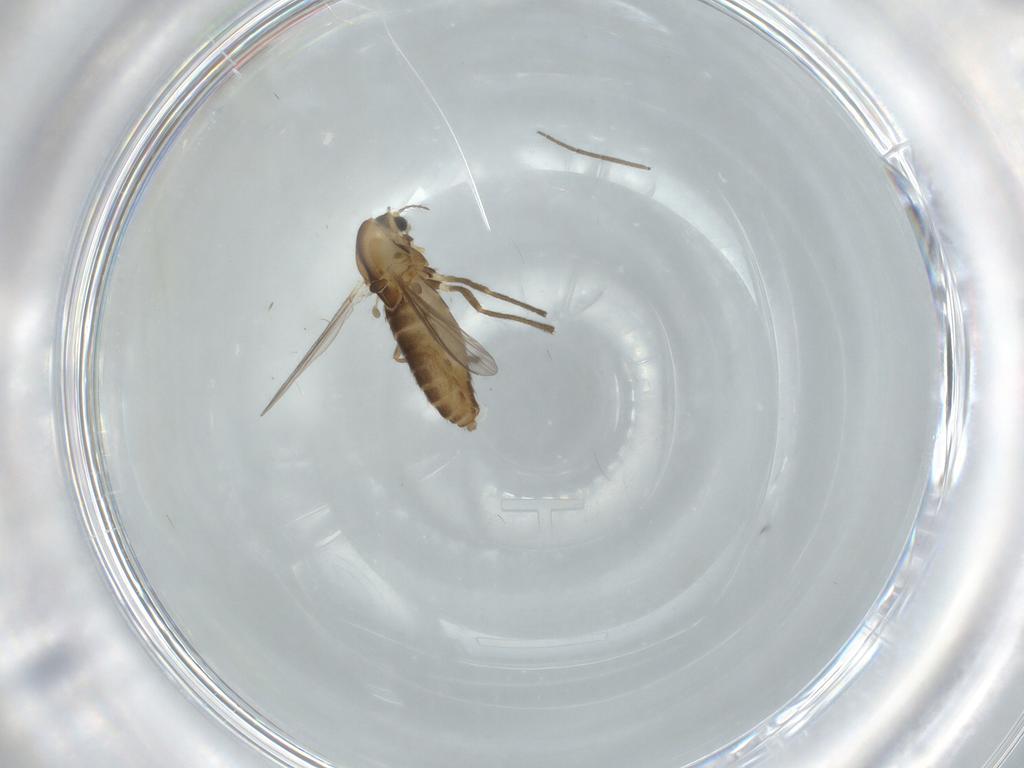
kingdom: Animalia
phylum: Arthropoda
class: Insecta
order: Diptera
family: Chironomidae
